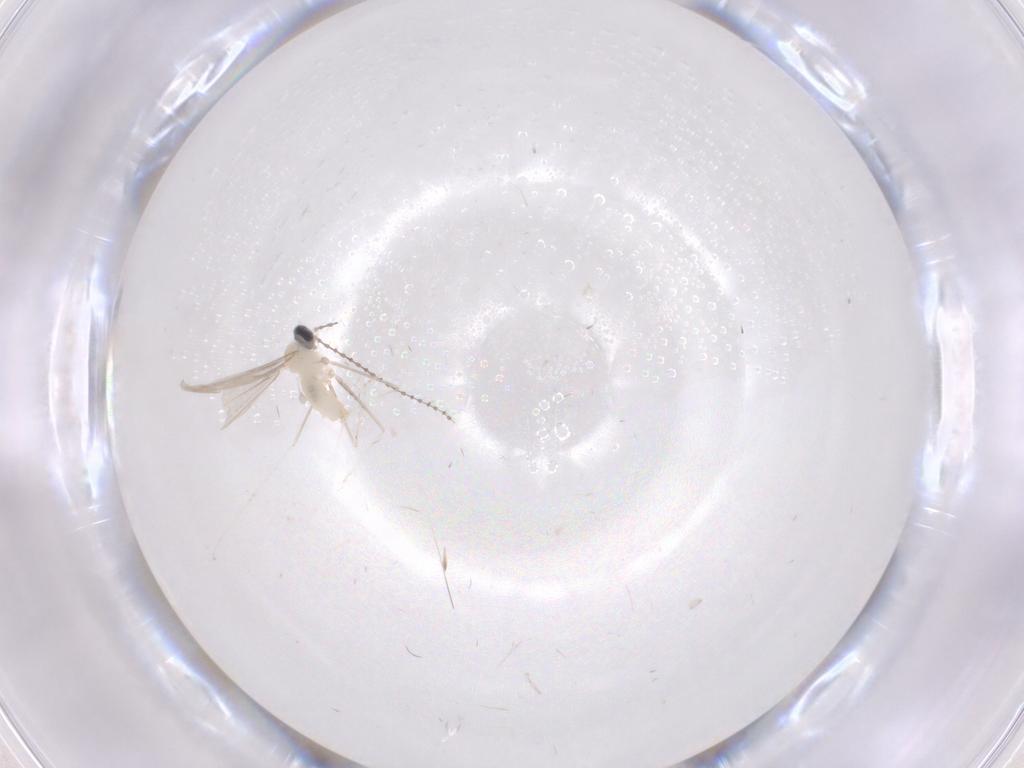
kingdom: Animalia
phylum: Arthropoda
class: Insecta
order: Diptera
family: Cecidomyiidae
